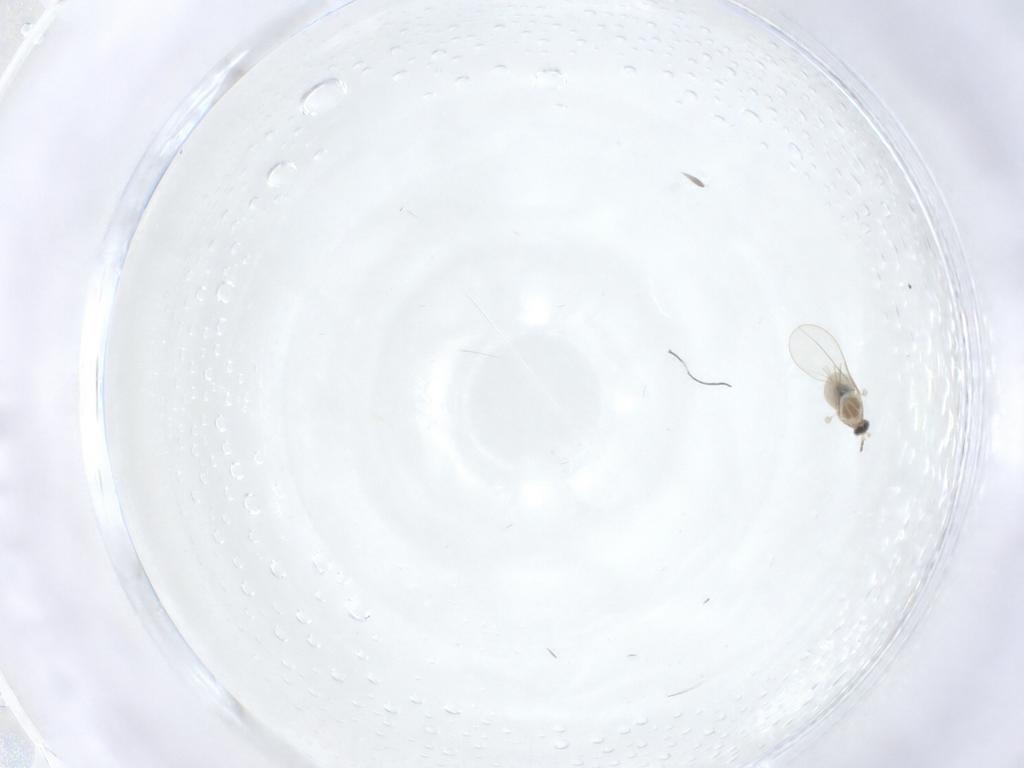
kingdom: Animalia
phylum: Arthropoda
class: Insecta
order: Diptera
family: Cecidomyiidae
